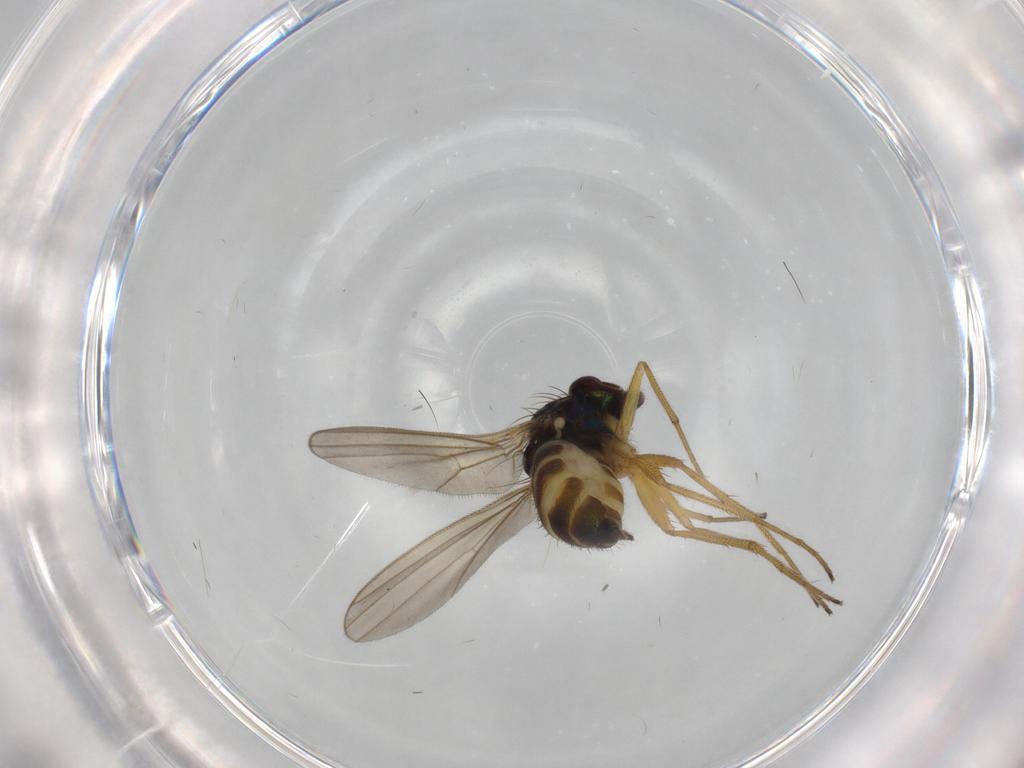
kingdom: Animalia
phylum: Arthropoda
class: Insecta
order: Diptera
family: Dolichopodidae
